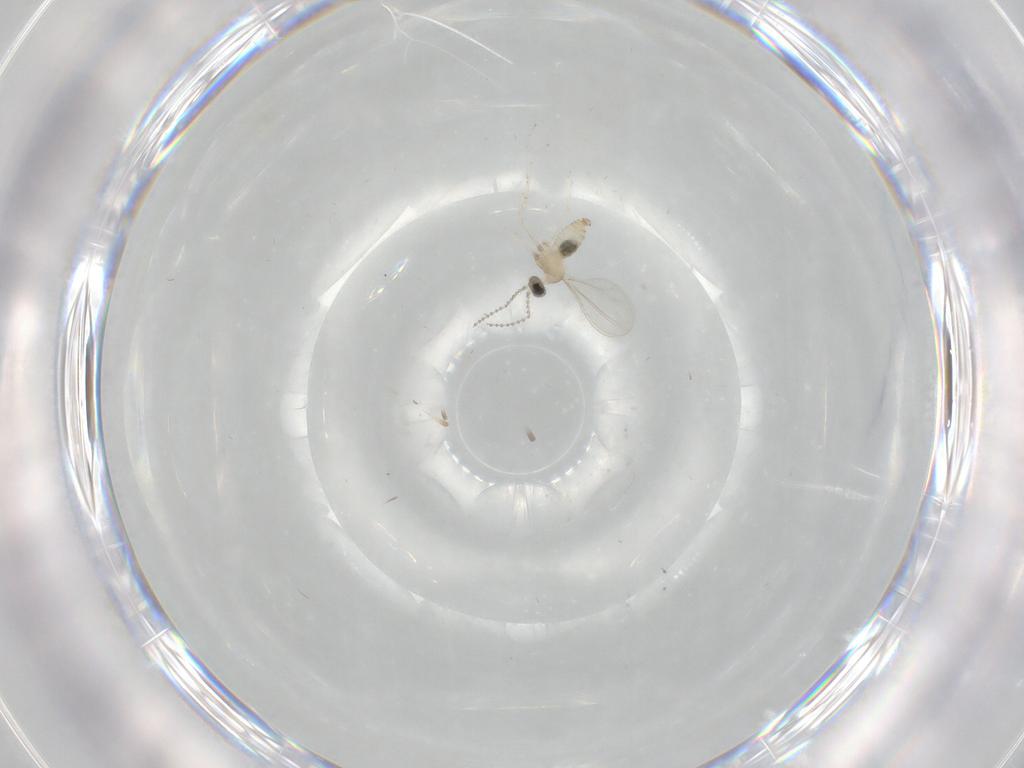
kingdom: Animalia
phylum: Arthropoda
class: Insecta
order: Diptera
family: Cecidomyiidae
